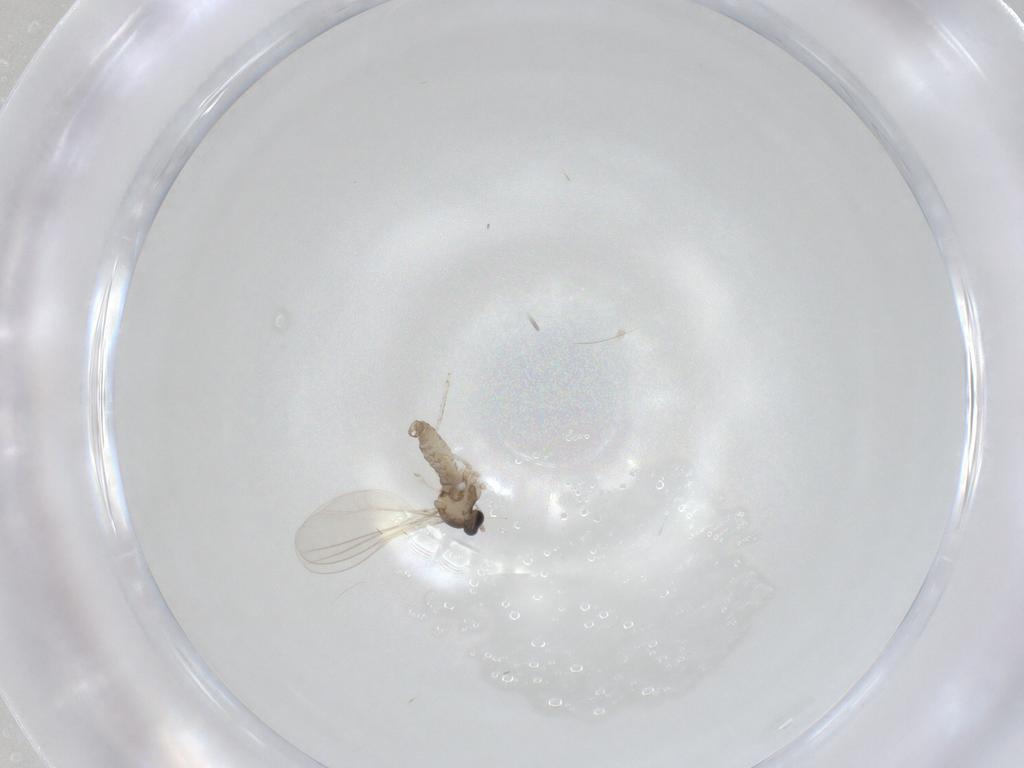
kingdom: Animalia
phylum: Arthropoda
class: Insecta
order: Diptera
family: Cecidomyiidae
